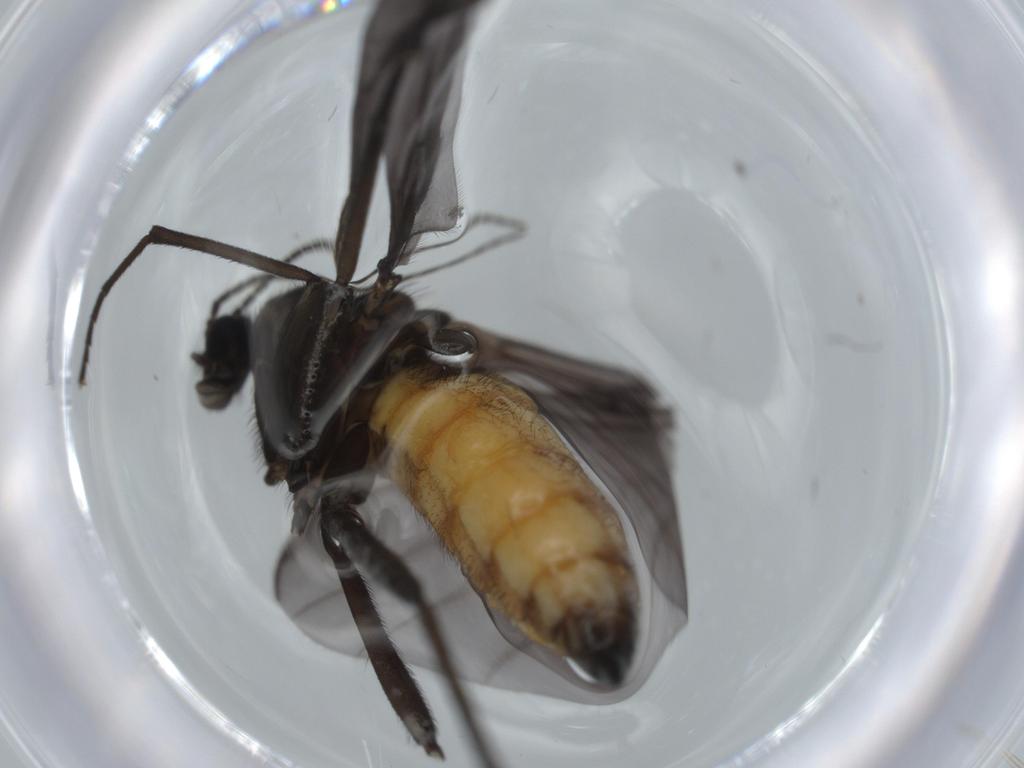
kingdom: Animalia
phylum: Arthropoda
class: Insecta
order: Diptera
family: Sciaridae
